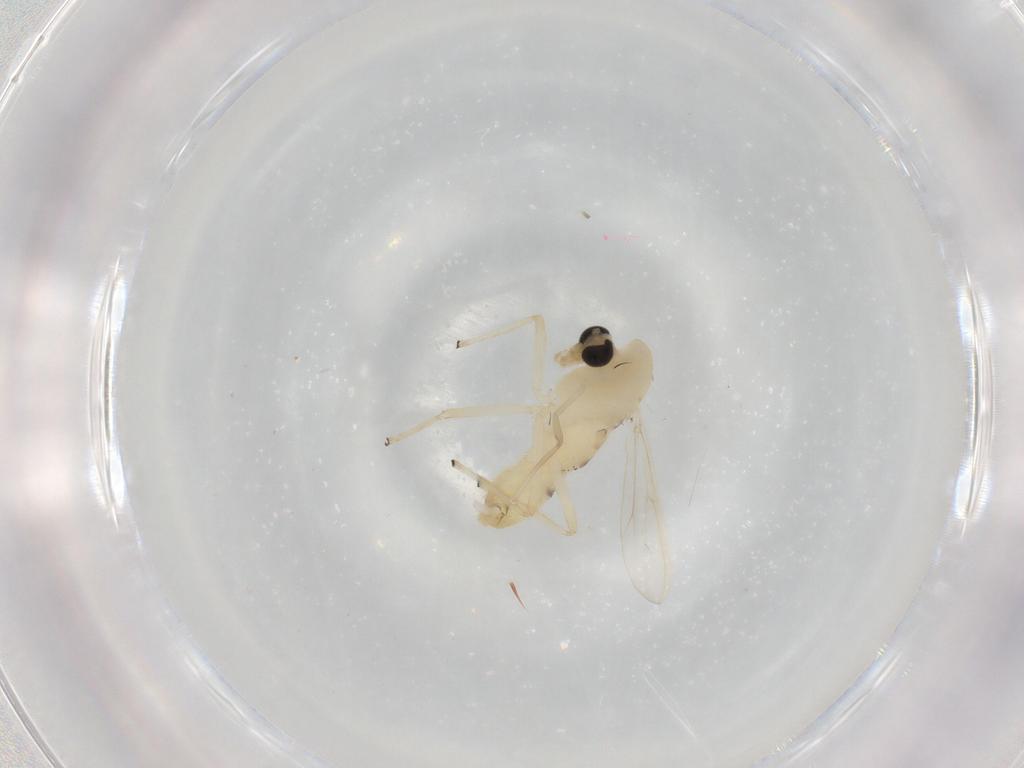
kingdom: Animalia
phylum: Arthropoda
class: Insecta
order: Diptera
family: Chironomidae
